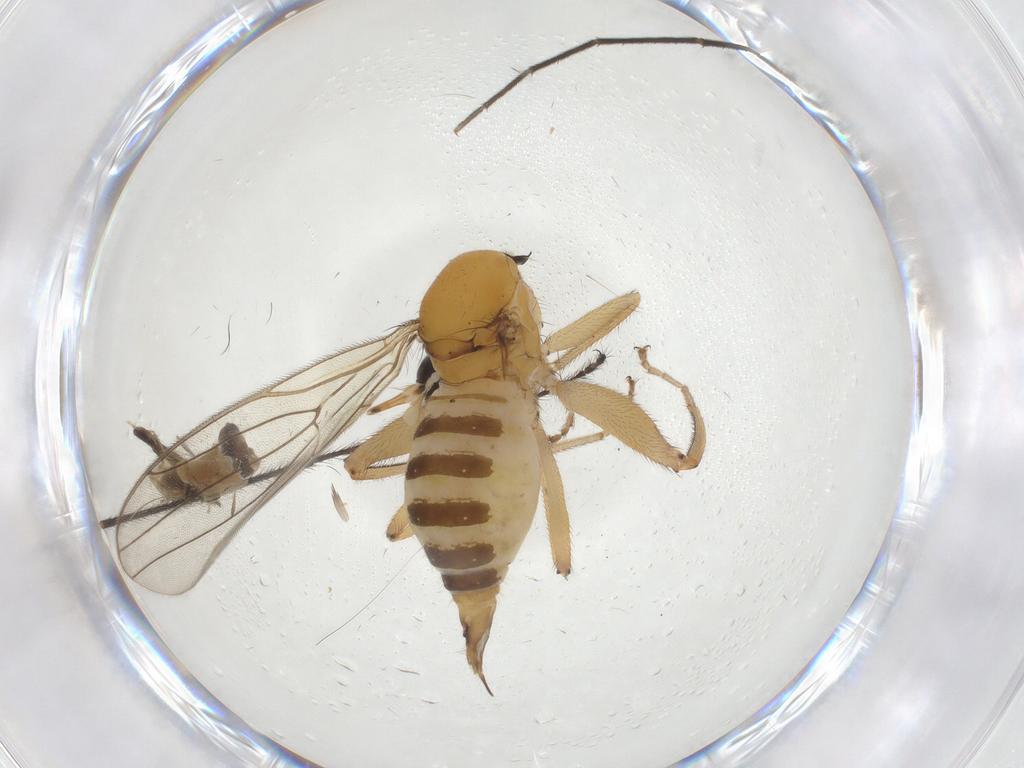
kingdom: Animalia
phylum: Arthropoda
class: Insecta
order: Diptera
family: Hybotidae
